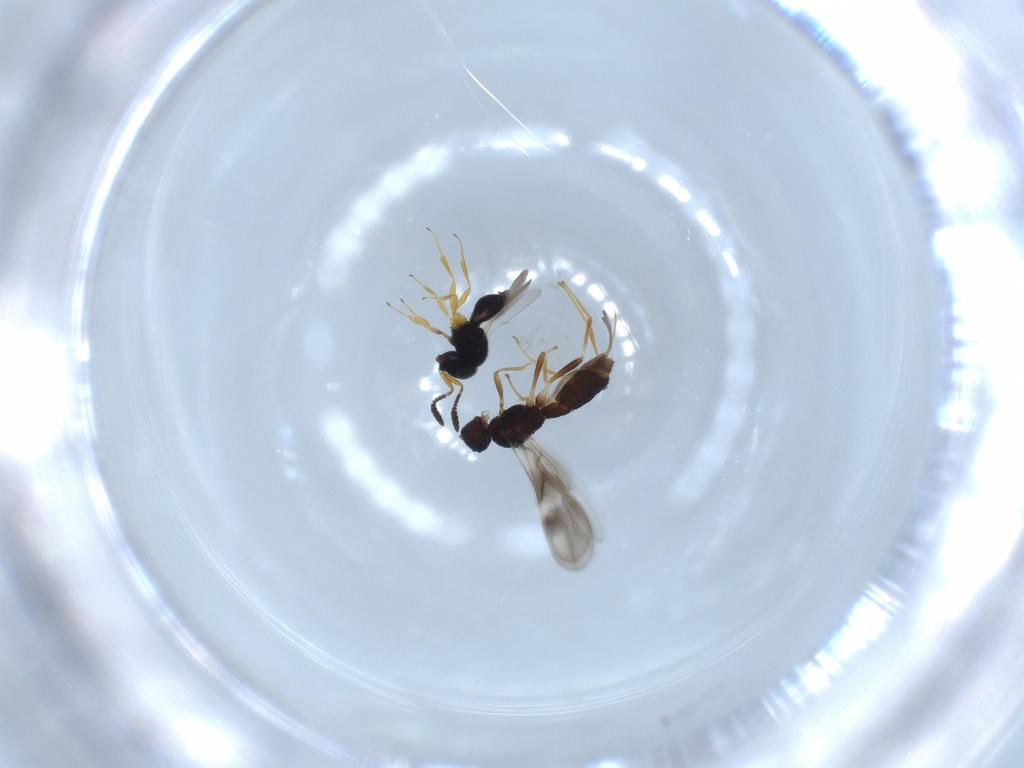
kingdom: Animalia
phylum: Arthropoda
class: Insecta
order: Hymenoptera
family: Scelionidae
